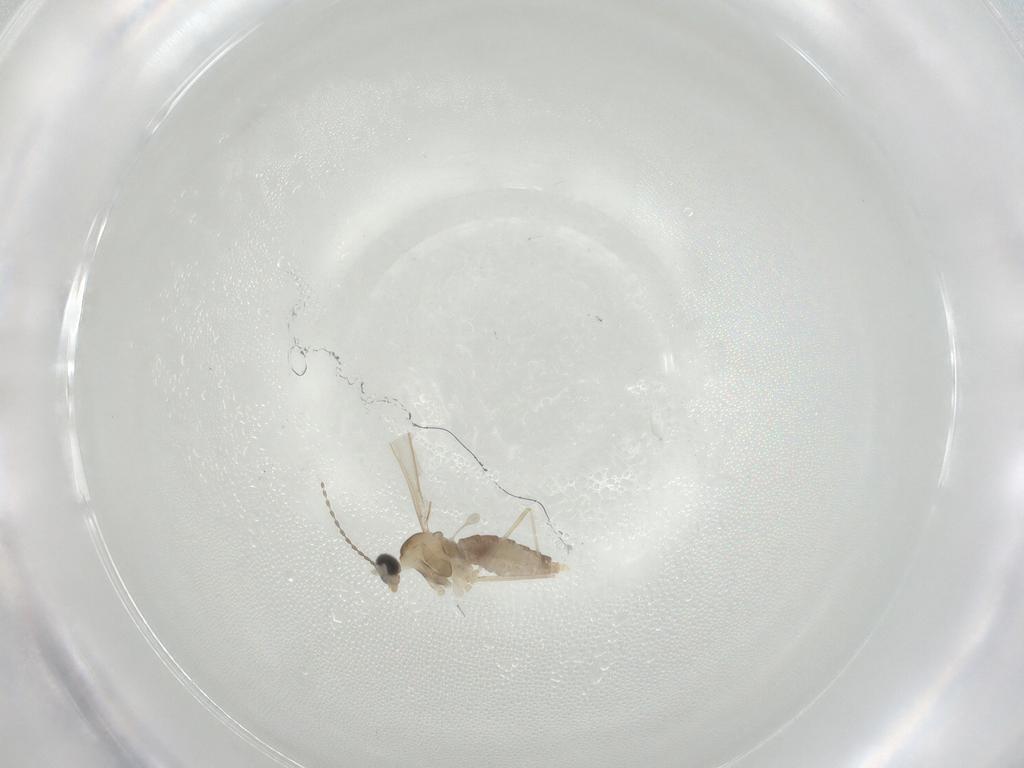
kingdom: Animalia
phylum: Arthropoda
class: Insecta
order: Diptera
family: Cecidomyiidae
